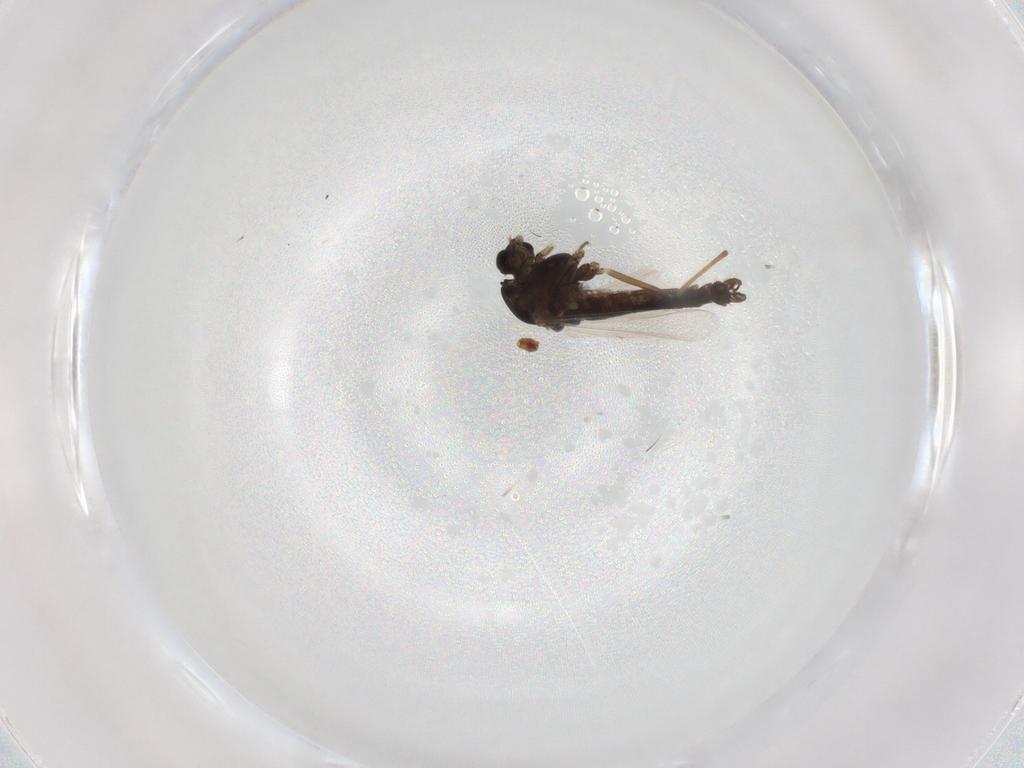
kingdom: Animalia
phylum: Arthropoda
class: Insecta
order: Diptera
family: Chironomidae
